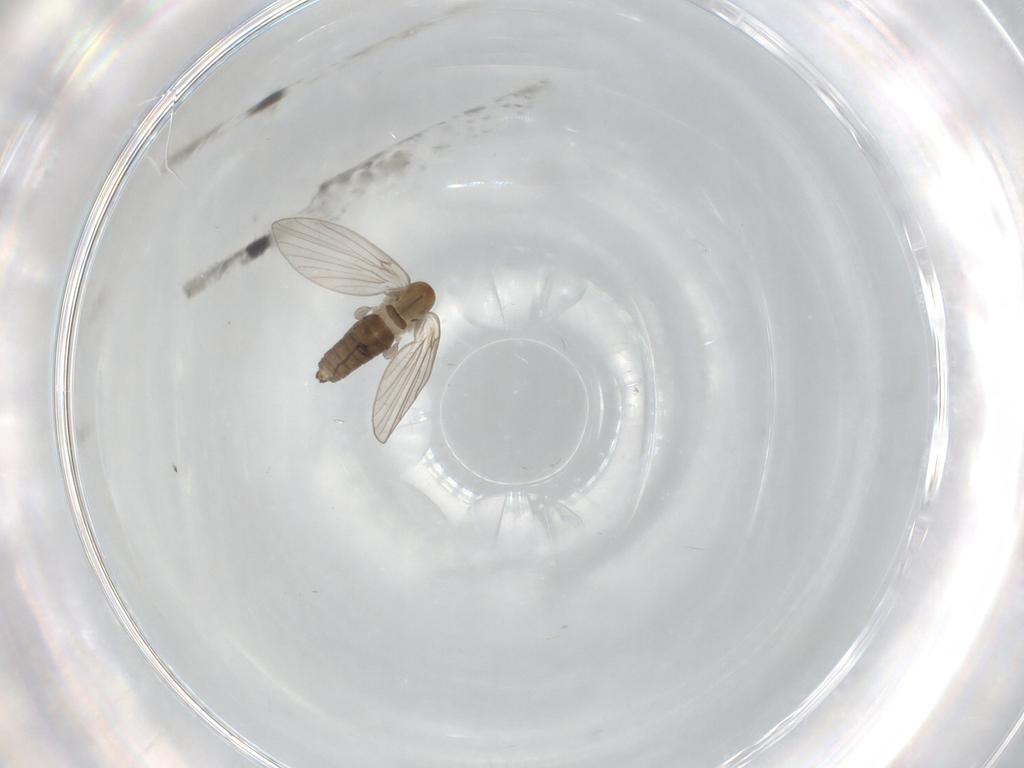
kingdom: Animalia
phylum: Arthropoda
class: Insecta
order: Diptera
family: Psychodidae
